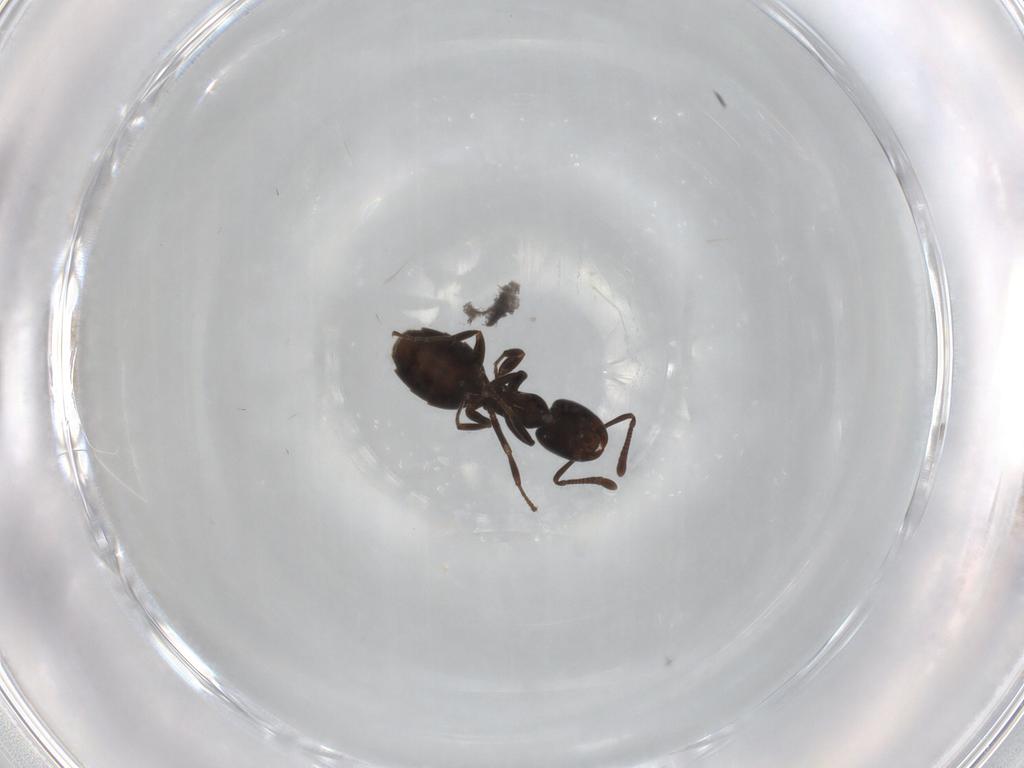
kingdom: Animalia
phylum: Arthropoda
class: Insecta
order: Hymenoptera
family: Formicidae
